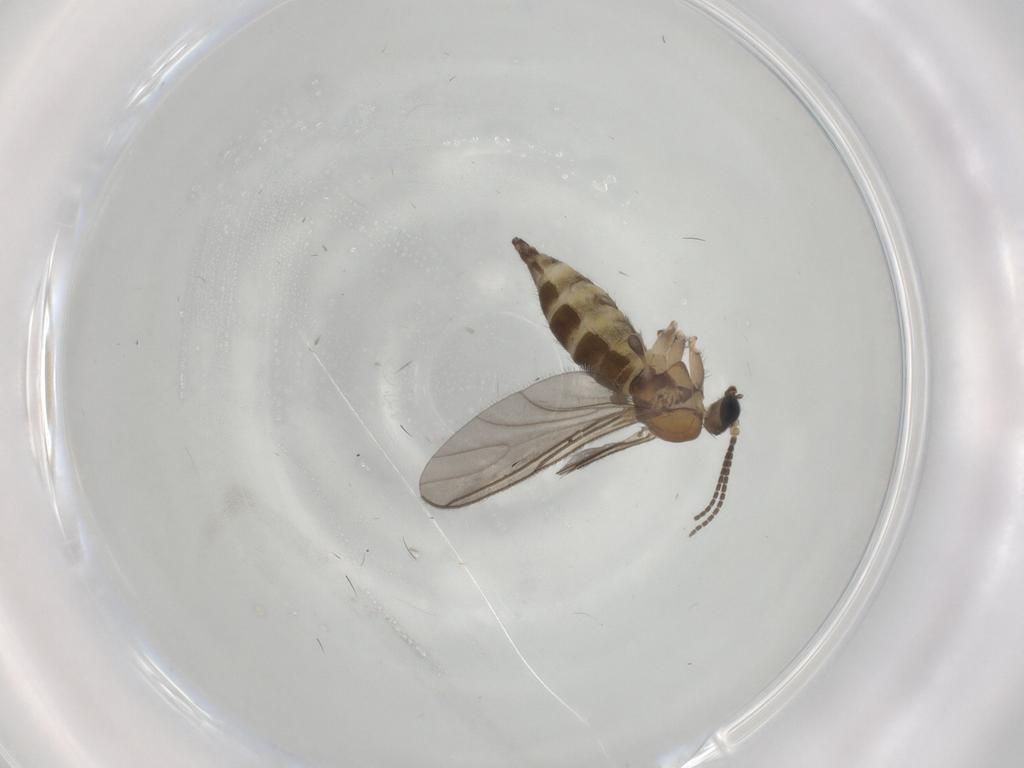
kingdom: Animalia
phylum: Arthropoda
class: Insecta
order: Diptera
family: Sciaridae
